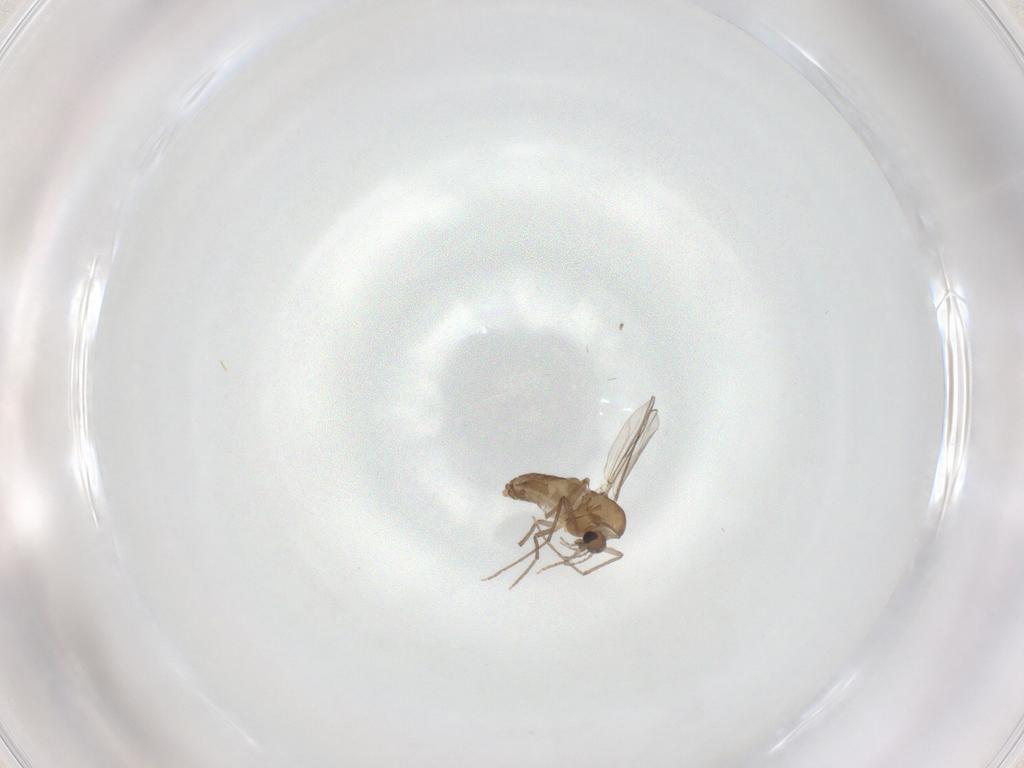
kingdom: Animalia
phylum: Arthropoda
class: Insecta
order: Diptera
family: Chironomidae
